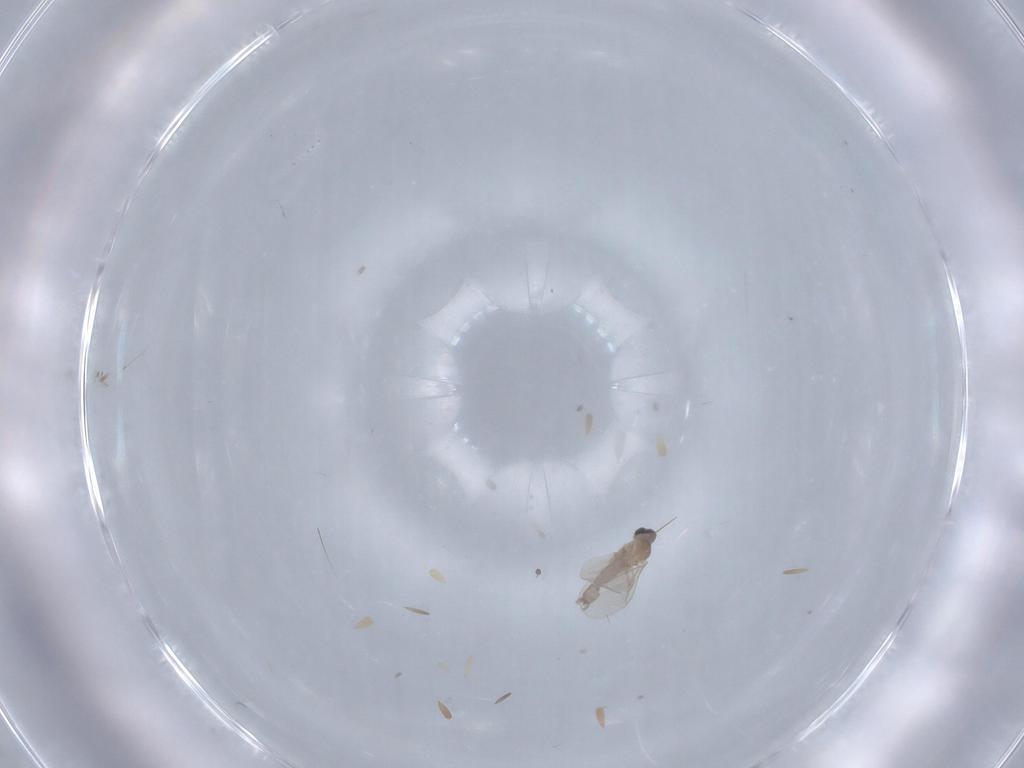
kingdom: Animalia
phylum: Arthropoda
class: Insecta
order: Diptera
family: Cecidomyiidae
